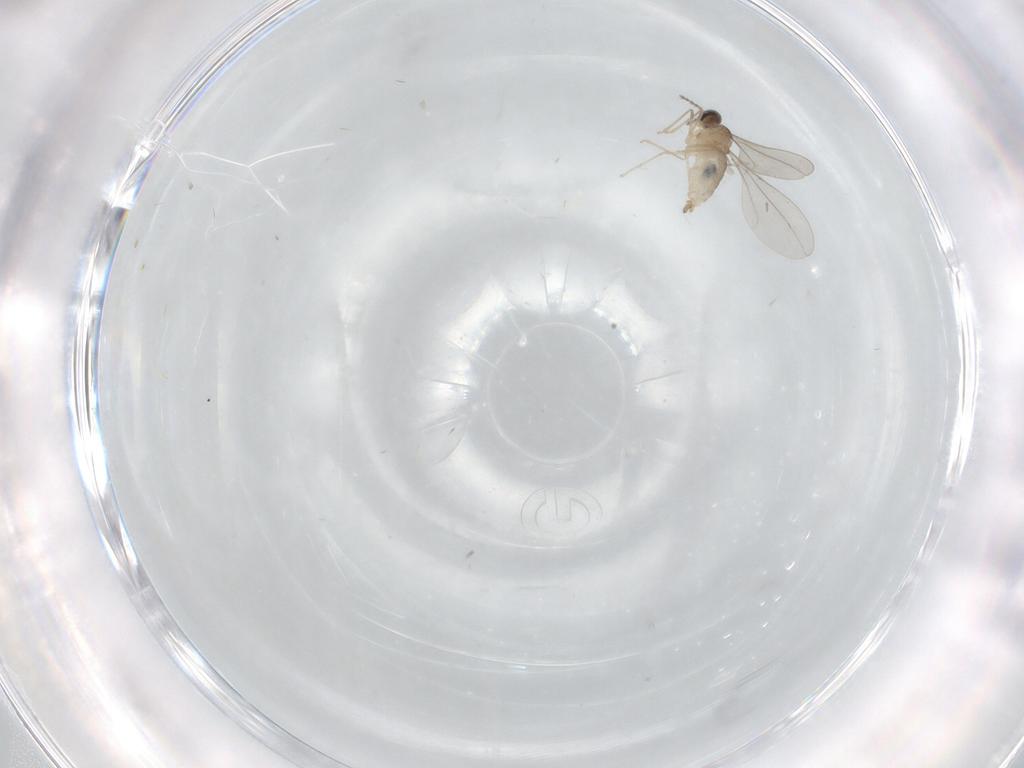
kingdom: Animalia
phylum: Arthropoda
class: Insecta
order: Diptera
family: Cecidomyiidae
